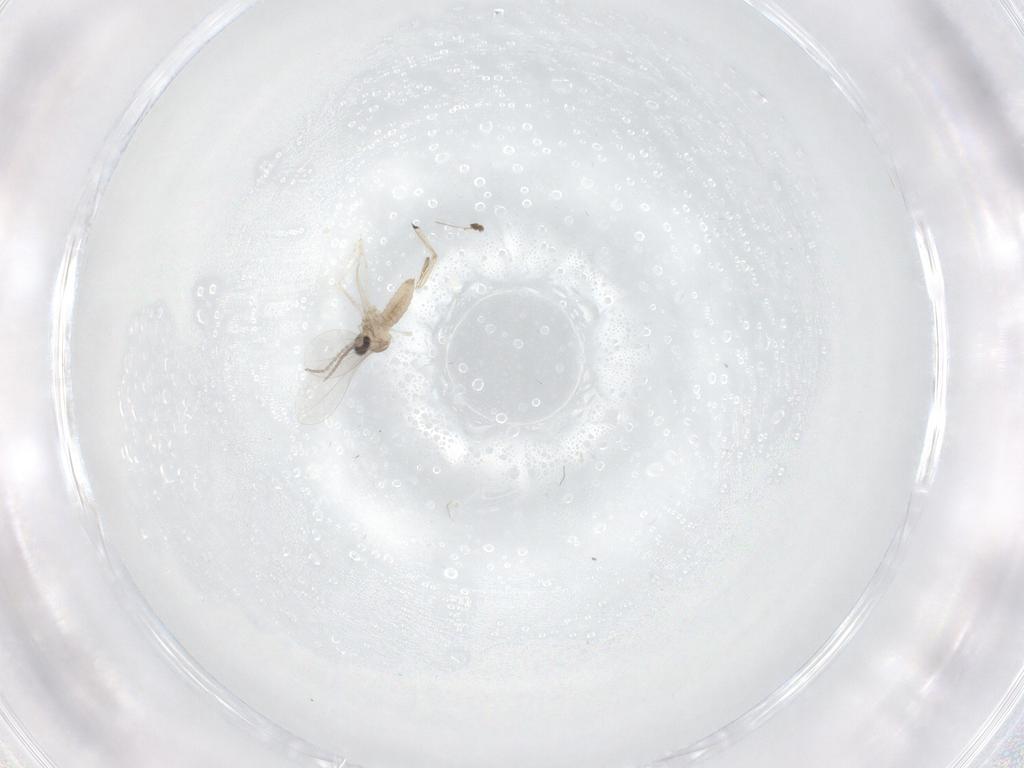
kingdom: Animalia
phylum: Arthropoda
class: Insecta
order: Diptera
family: Cecidomyiidae
